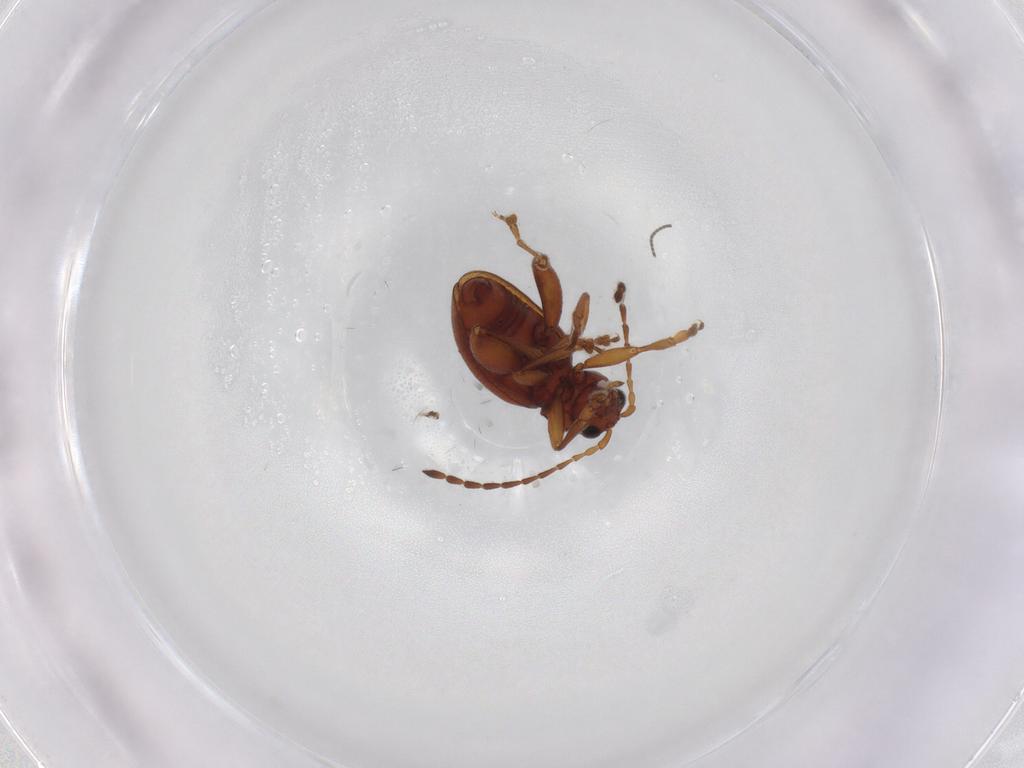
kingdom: Animalia
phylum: Arthropoda
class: Insecta
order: Coleoptera
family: Chrysomelidae
